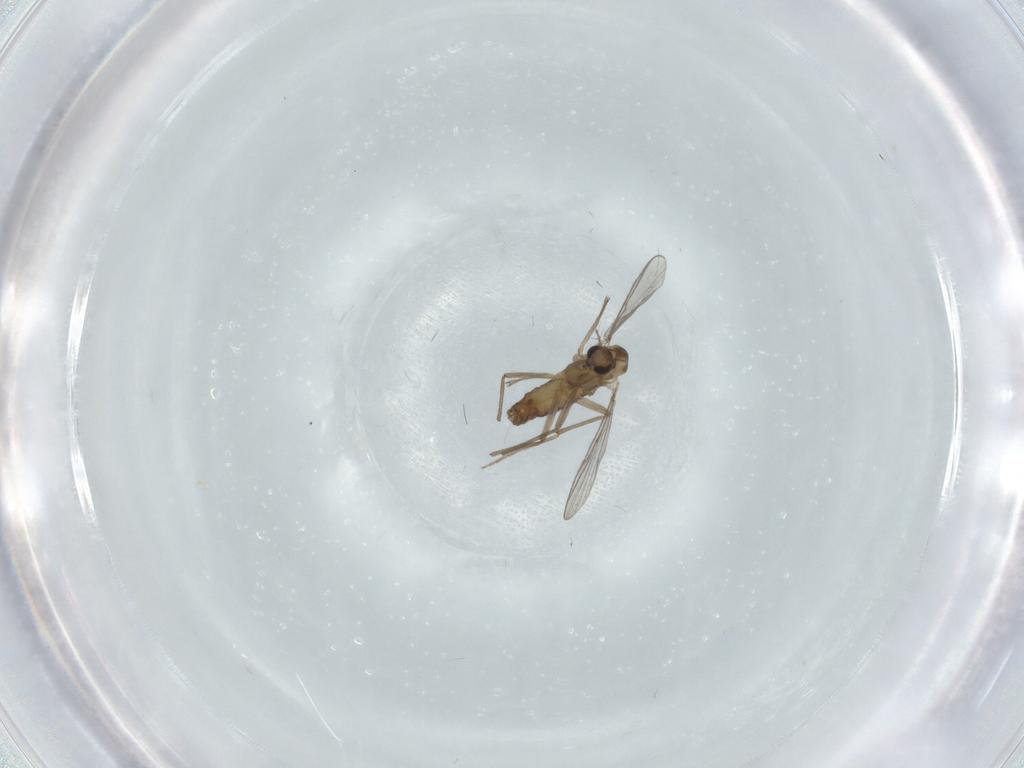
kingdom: Animalia
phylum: Arthropoda
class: Insecta
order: Diptera
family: Chironomidae
